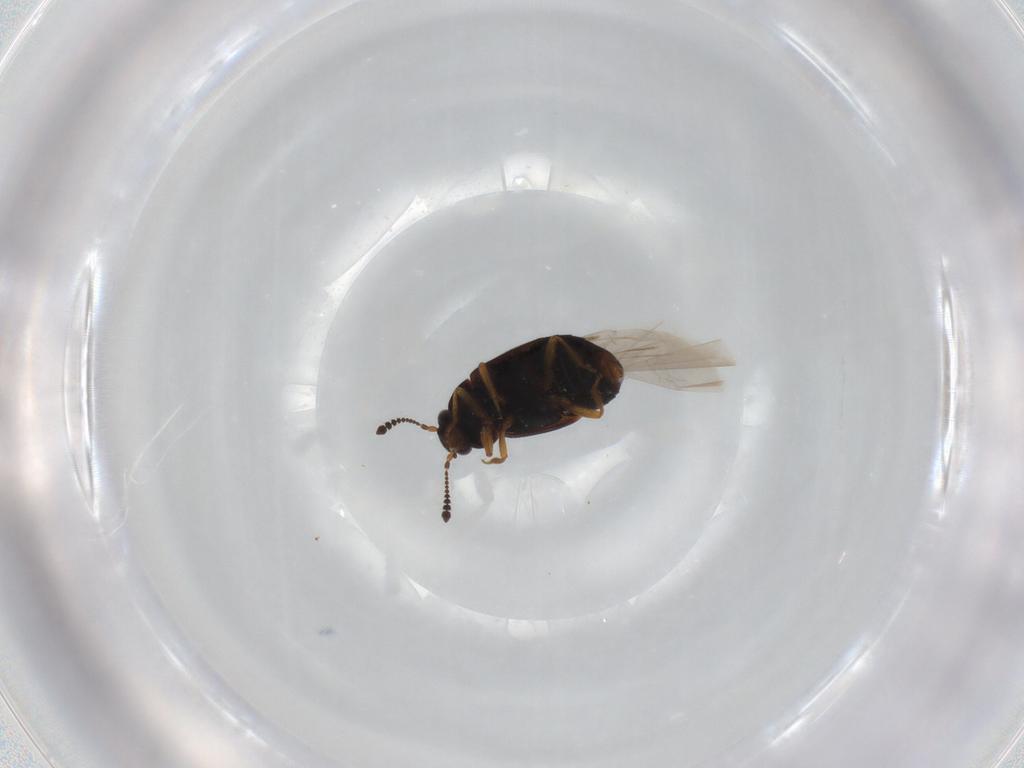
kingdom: Animalia
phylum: Arthropoda
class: Insecta
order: Coleoptera
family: Staphylinidae
